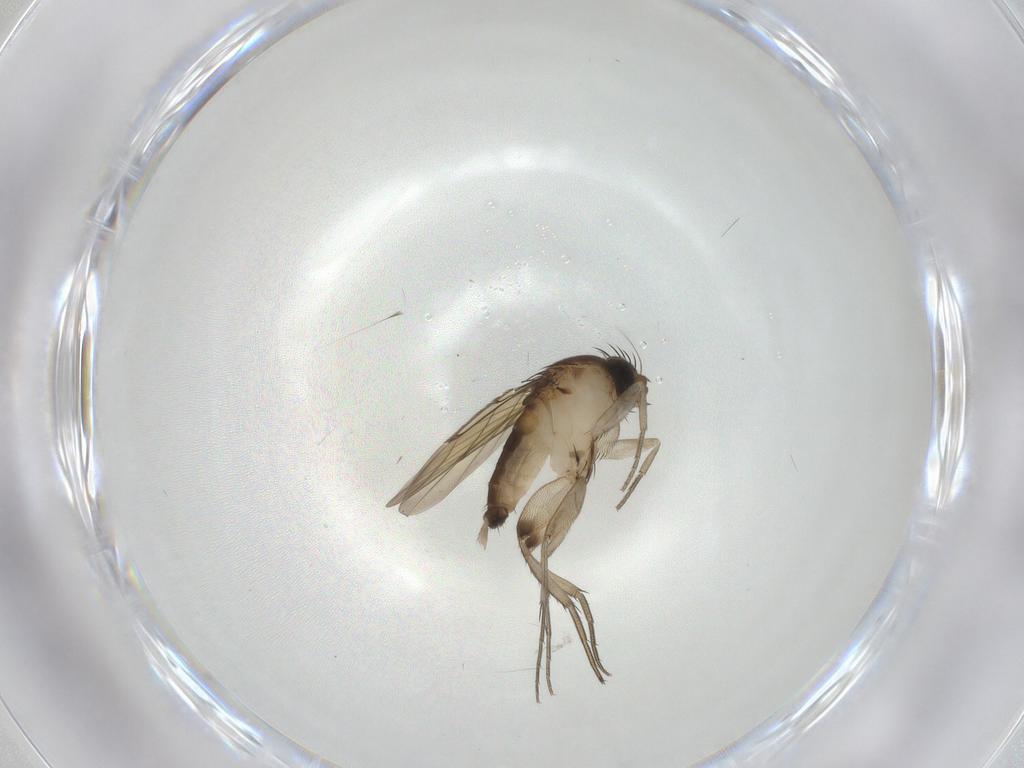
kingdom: Animalia
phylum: Arthropoda
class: Insecta
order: Diptera
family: Phoridae
